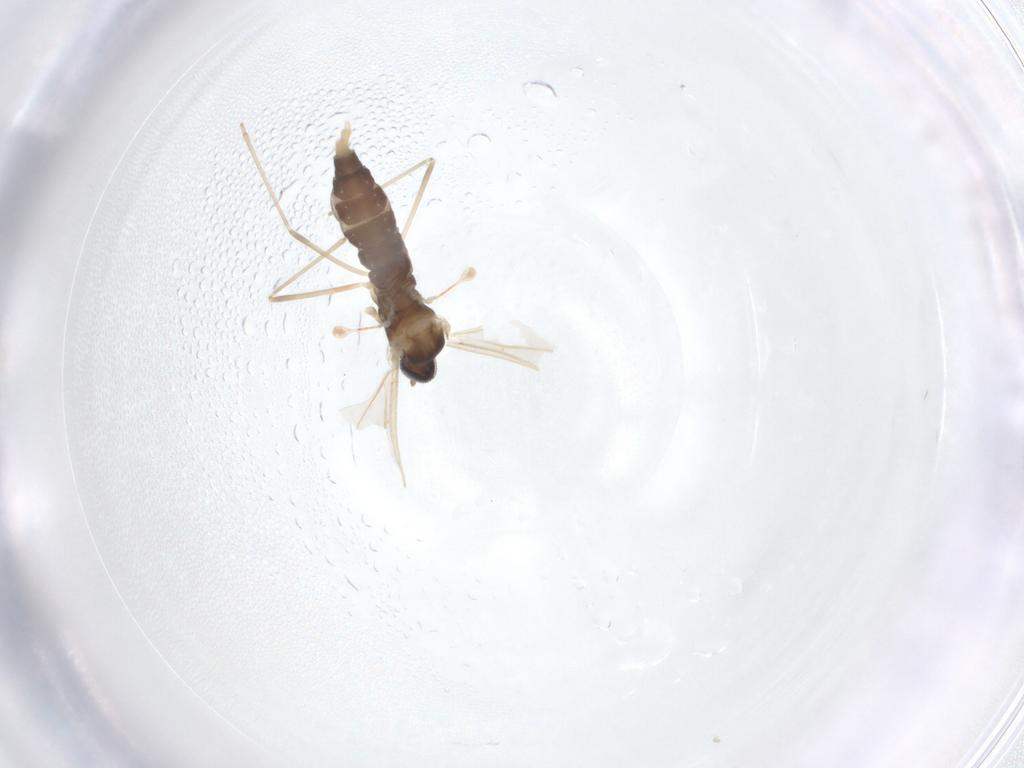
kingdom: Animalia
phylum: Arthropoda
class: Insecta
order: Diptera
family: Cecidomyiidae
